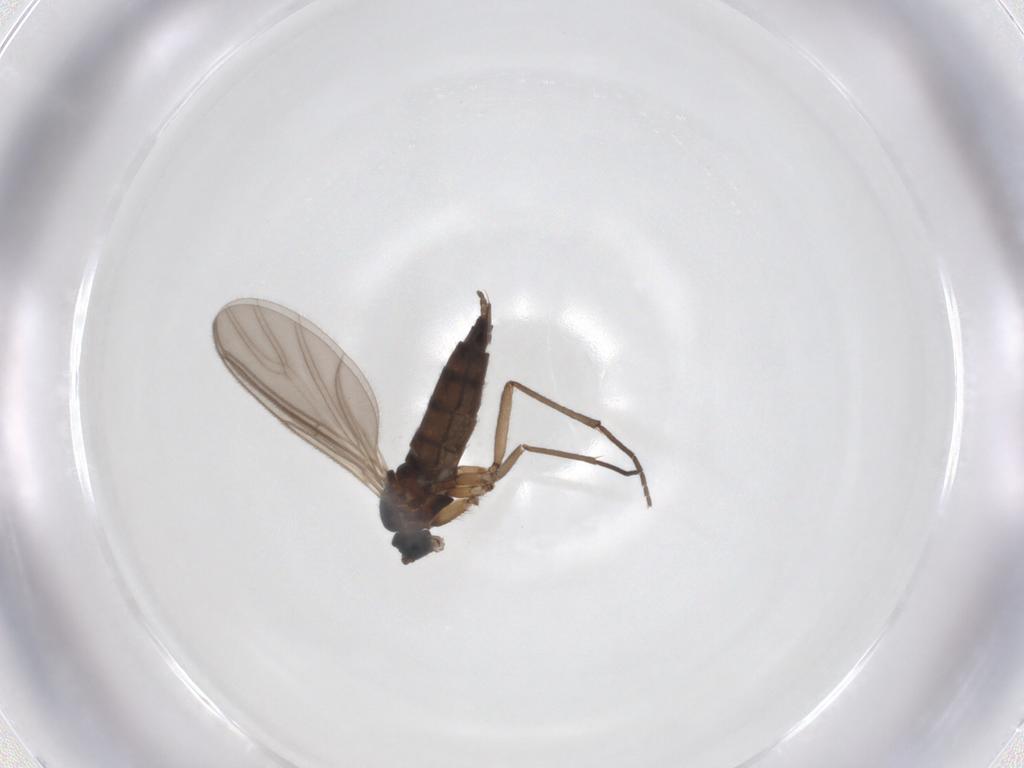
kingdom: Animalia
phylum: Arthropoda
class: Insecta
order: Diptera
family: Sciaridae
